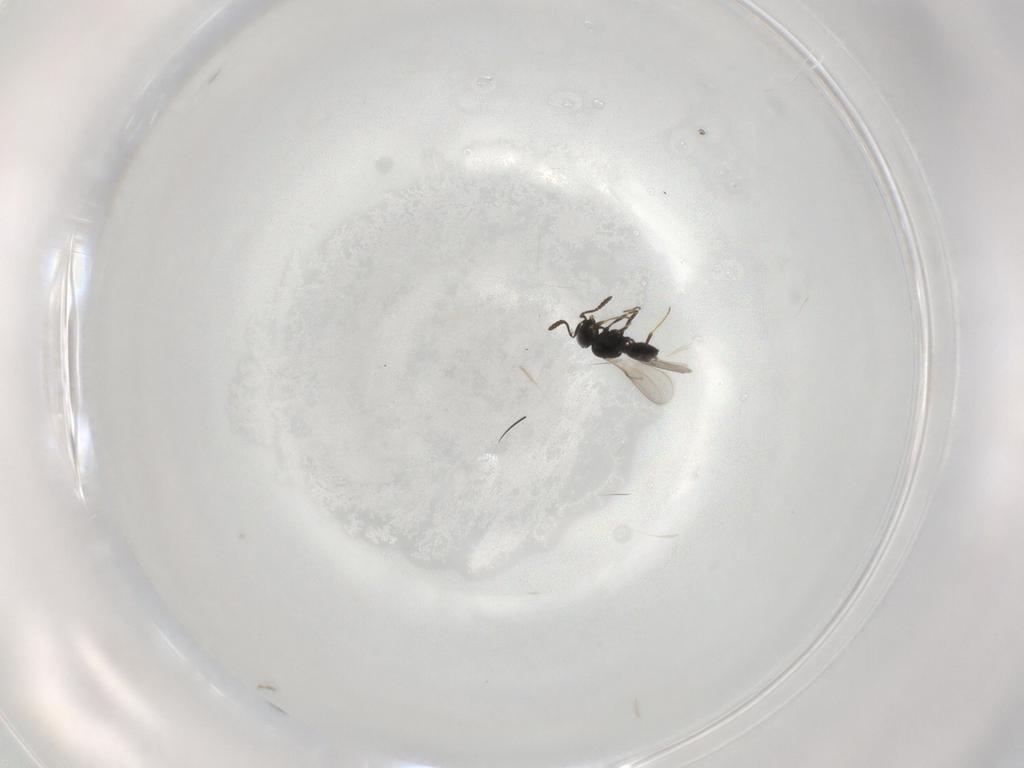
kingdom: Animalia
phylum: Arthropoda
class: Insecta
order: Hymenoptera
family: Scelionidae
